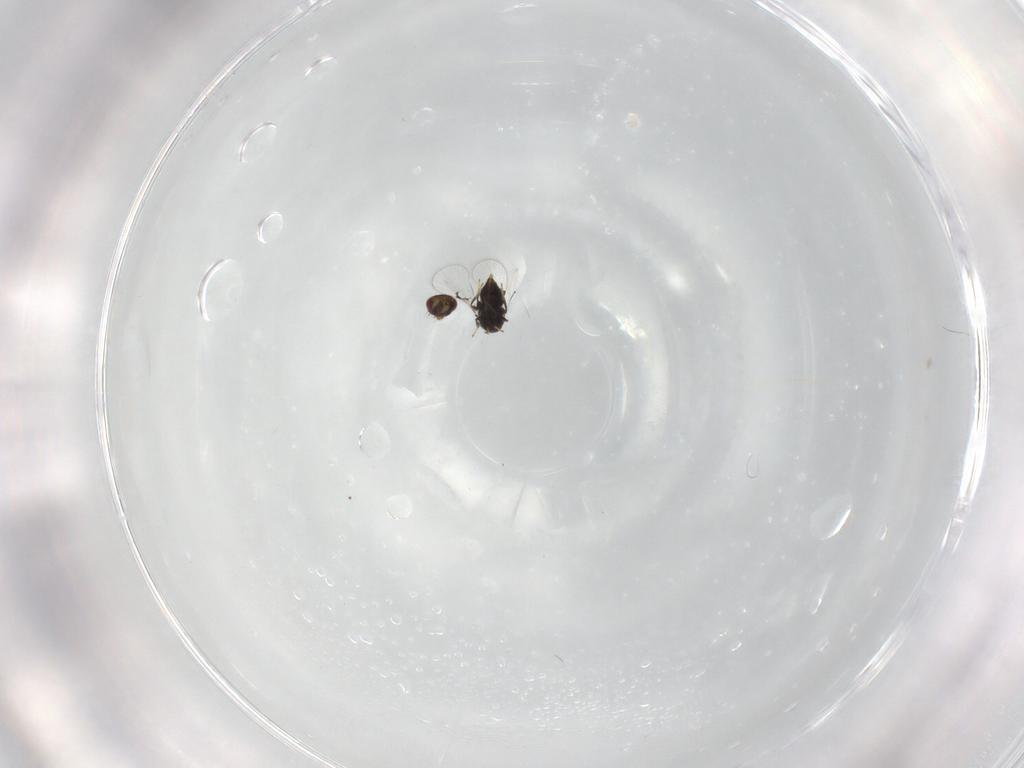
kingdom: Animalia
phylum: Arthropoda
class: Insecta
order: Hymenoptera
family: Trichogrammatidae
